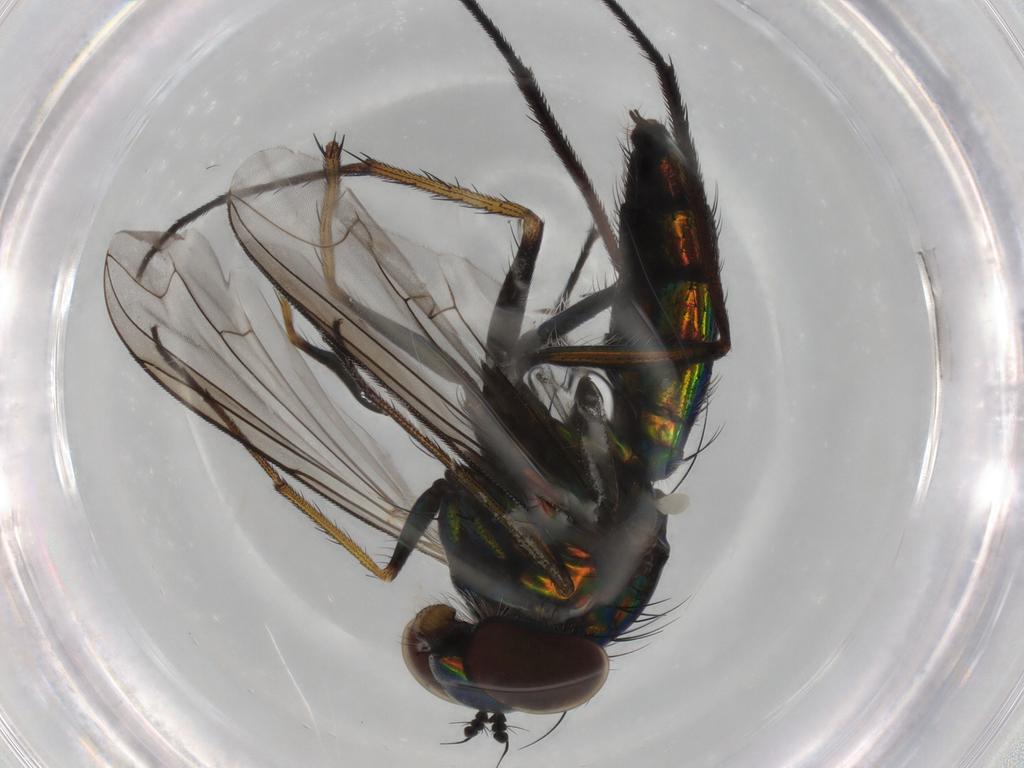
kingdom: Animalia
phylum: Arthropoda
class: Insecta
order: Diptera
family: Dolichopodidae
